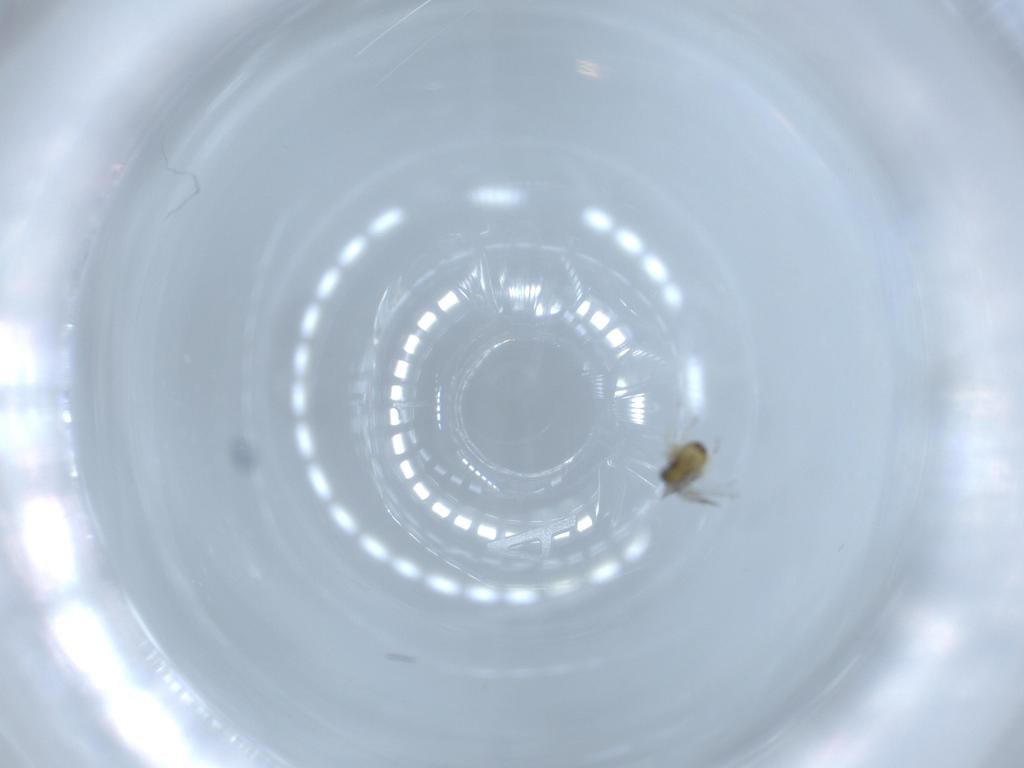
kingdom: Animalia
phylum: Arthropoda
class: Insecta
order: Hymenoptera
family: Trichogrammatidae
